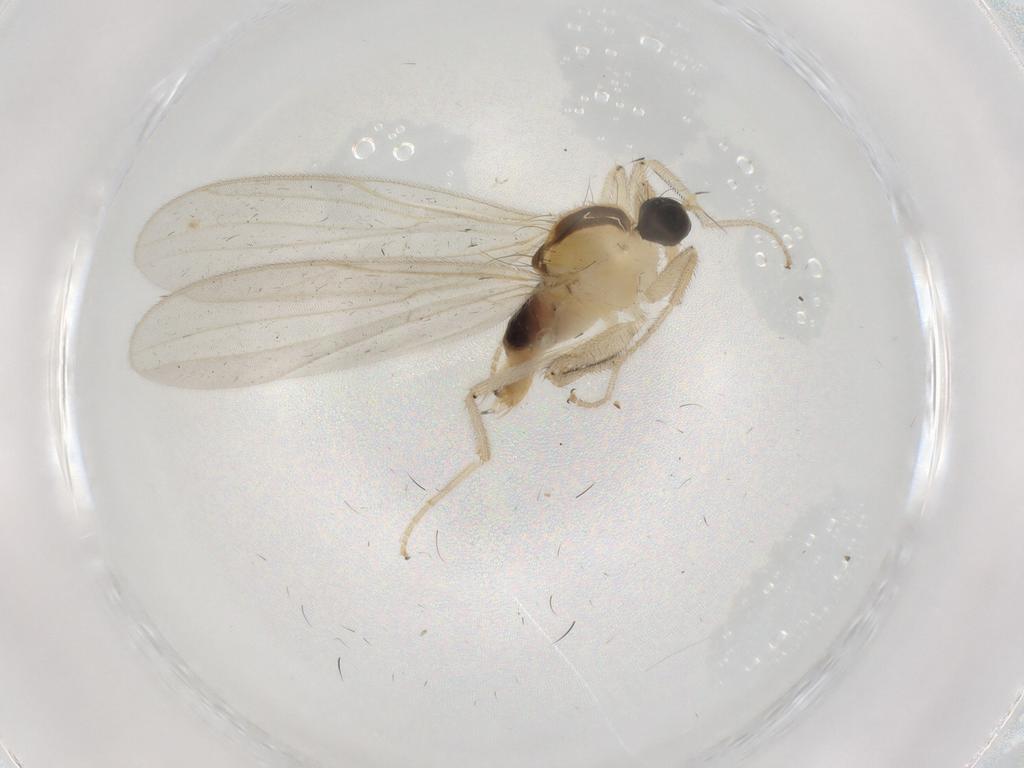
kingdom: Animalia
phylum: Arthropoda
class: Insecta
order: Diptera
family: Hybotidae
